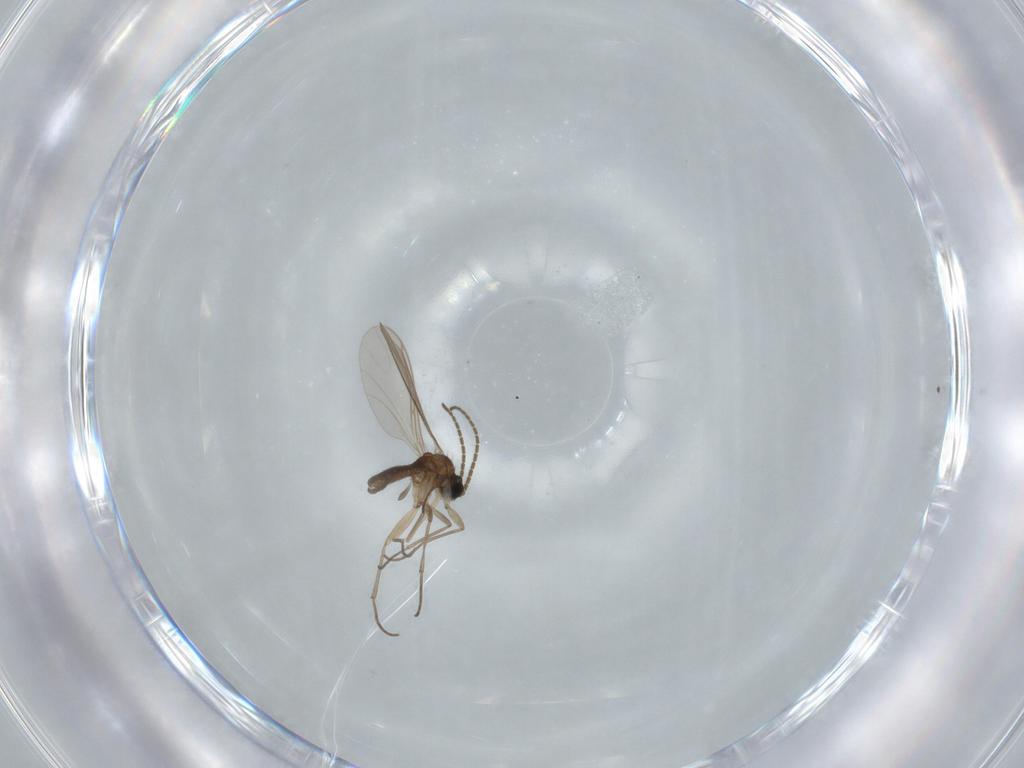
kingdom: Animalia
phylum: Arthropoda
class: Insecta
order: Diptera
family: Sciaridae
